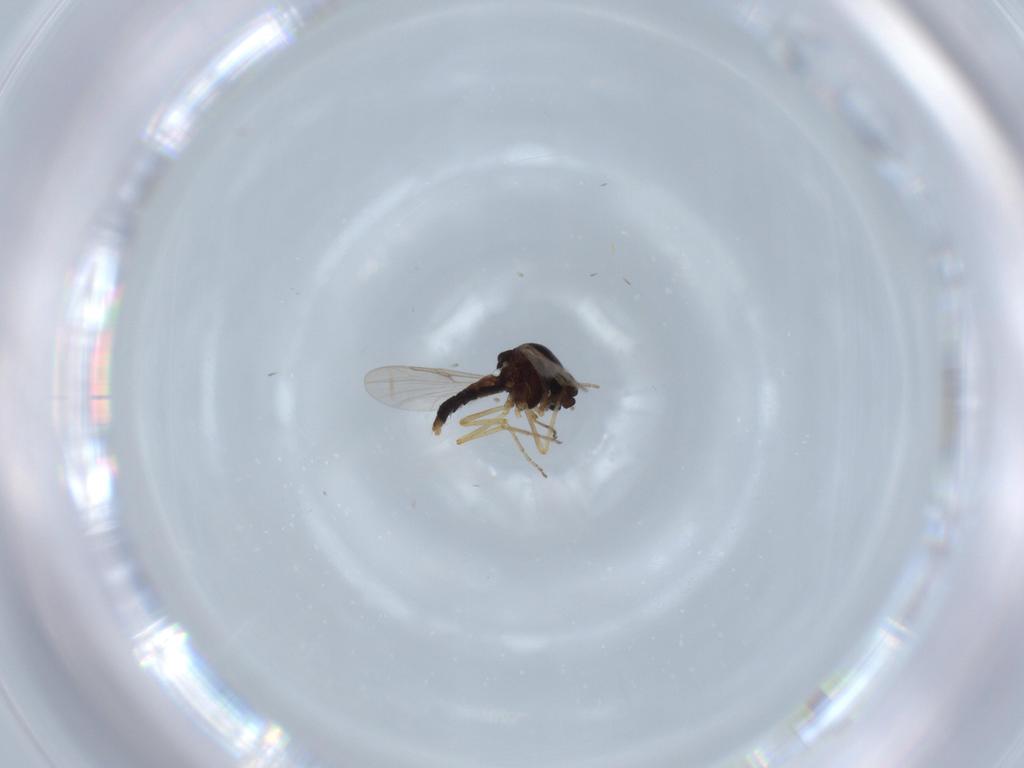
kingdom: Animalia
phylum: Arthropoda
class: Insecta
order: Diptera
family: Ceratopogonidae
